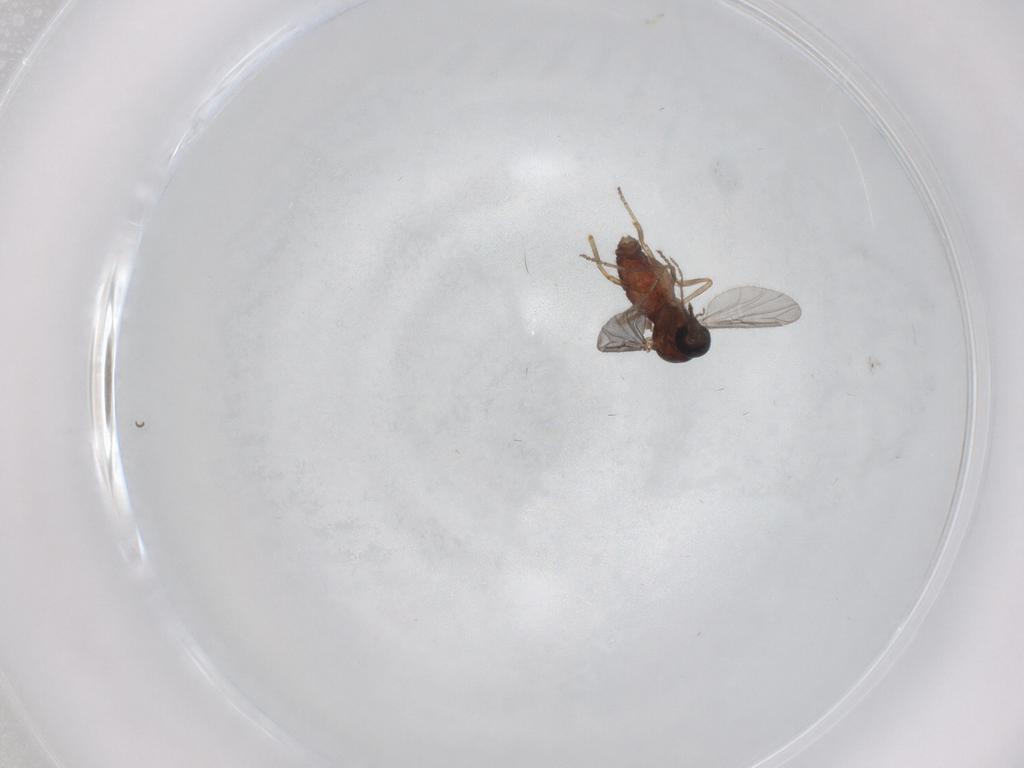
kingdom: Animalia
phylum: Arthropoda
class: Insecta
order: Diptera
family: Ceratopogonidae
